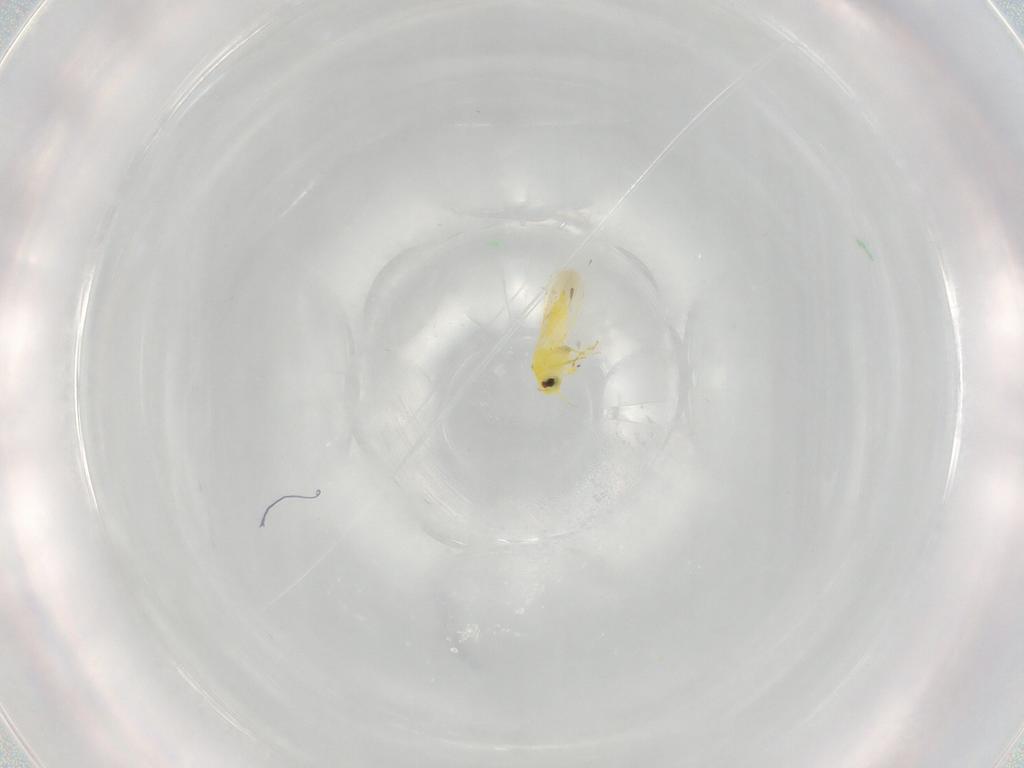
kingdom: Animalia
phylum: Arthropoda
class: Insecta
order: Hemiptera
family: Aleyrodidae
